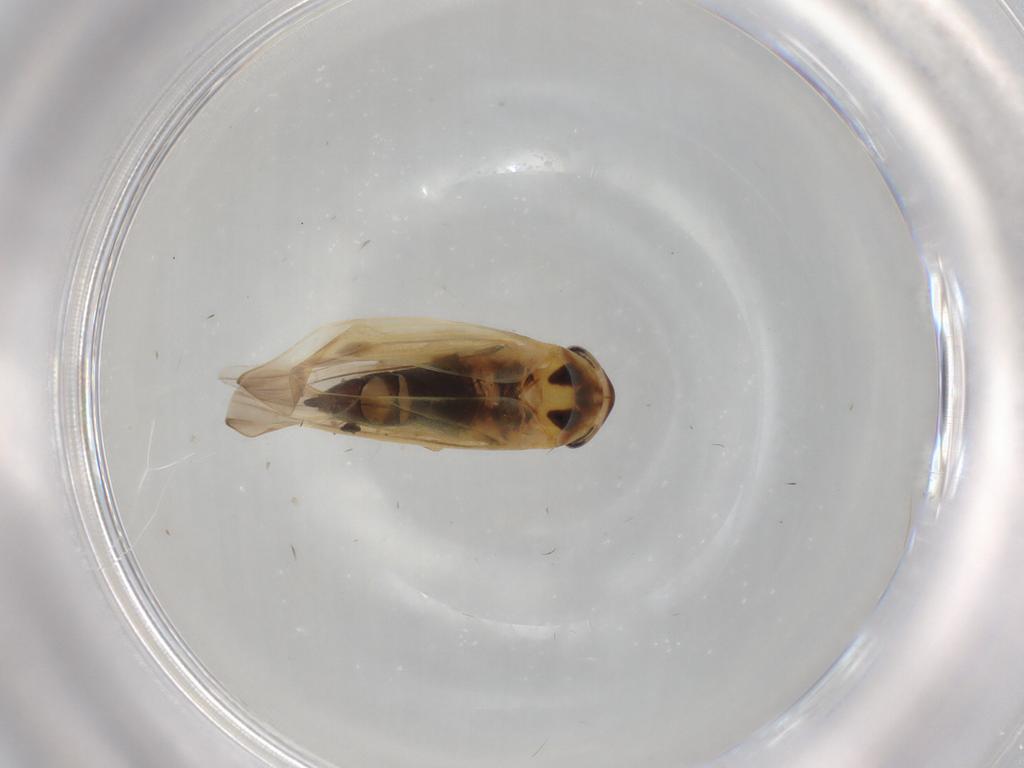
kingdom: Animalia
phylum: Arthropoda
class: Insecta
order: Hemiptera
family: Cicadellidae
